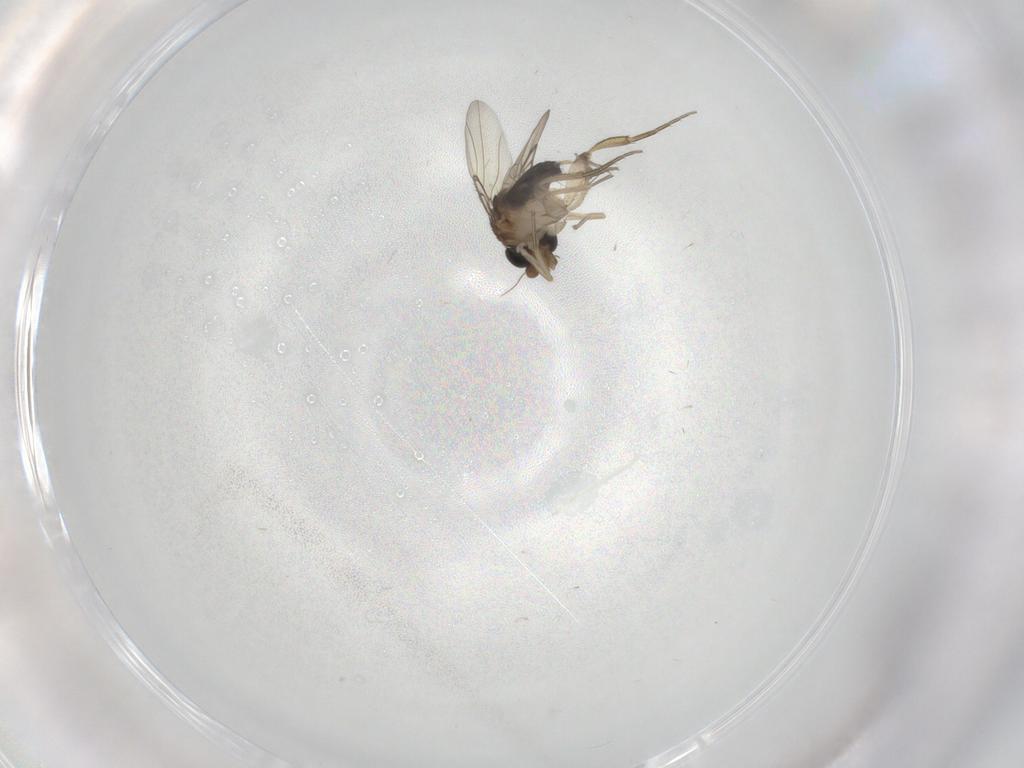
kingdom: Animalia
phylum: Arthropoda
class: Insecta
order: Diptera
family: Phoridae
